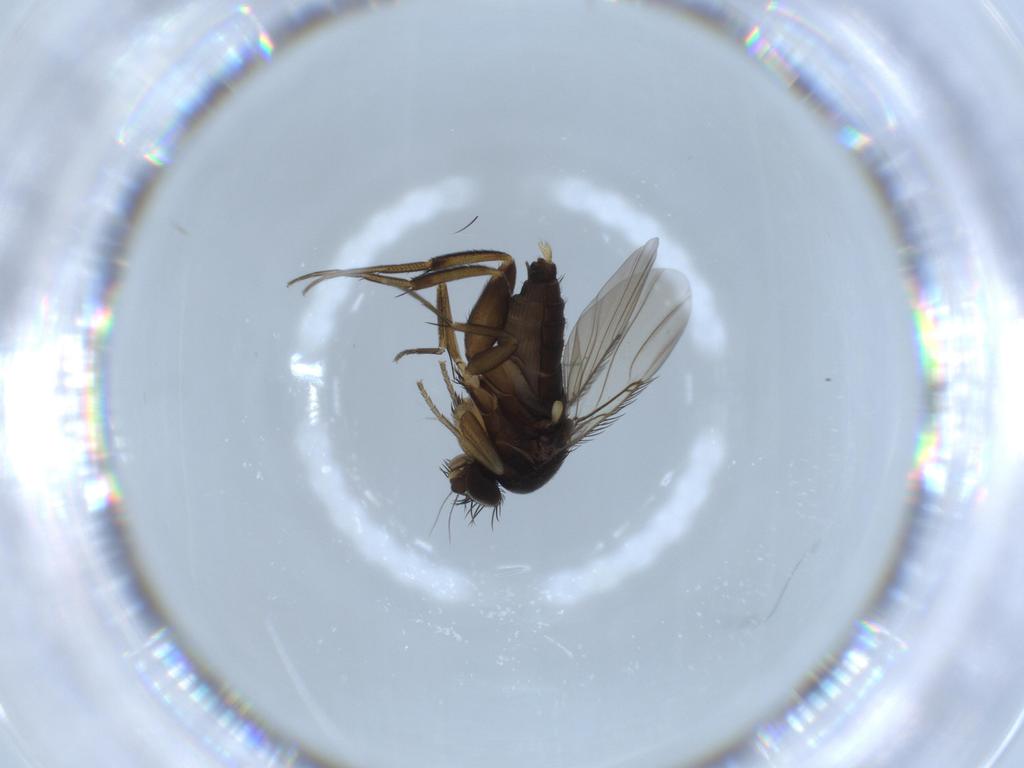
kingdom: Animalia
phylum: Arthropoda
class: Insecta
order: Diptera
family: Phoridae
